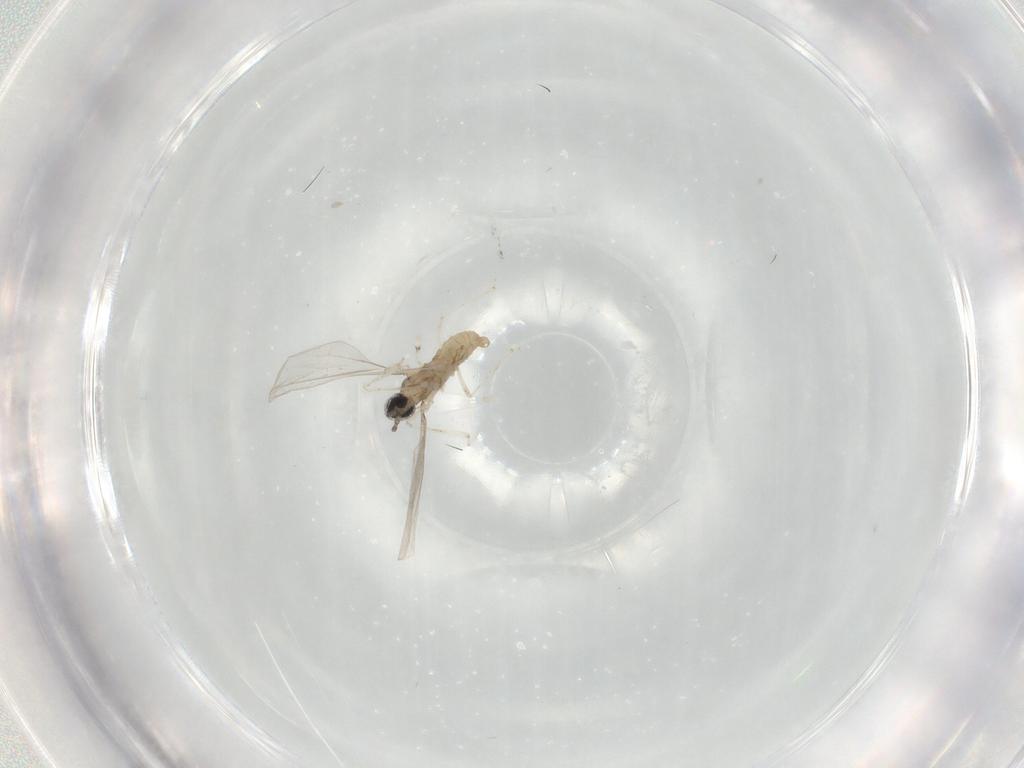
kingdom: Animalia
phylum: Arthropoda
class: Insecta
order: Diptera
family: Cecidomyiidae
